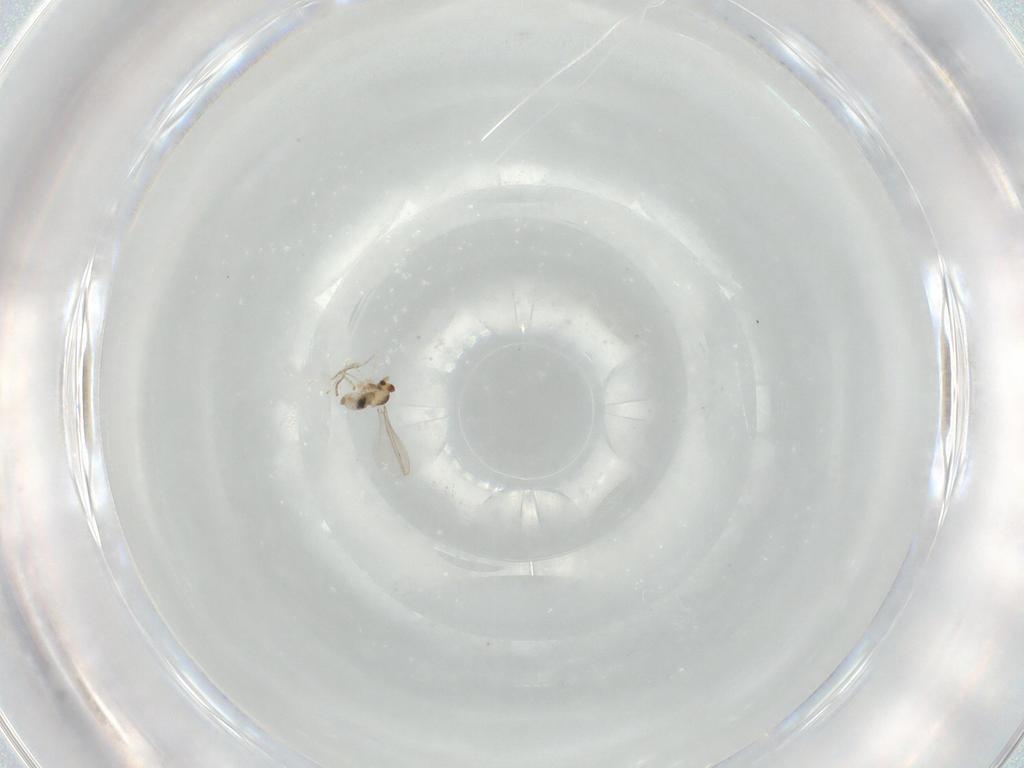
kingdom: Animalia
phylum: Arthropoda
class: Insecta
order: Diptera
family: Cecidomyiidae
